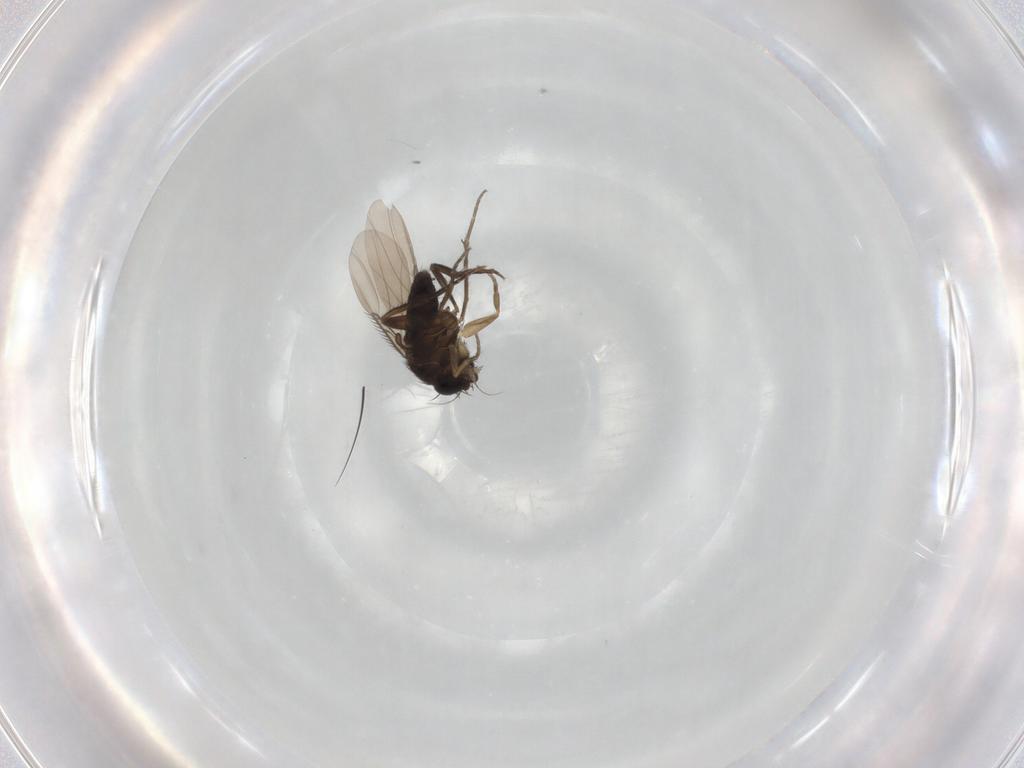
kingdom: Animalia
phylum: Arthropoda
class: Insecta
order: Diptera
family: Phoridae
